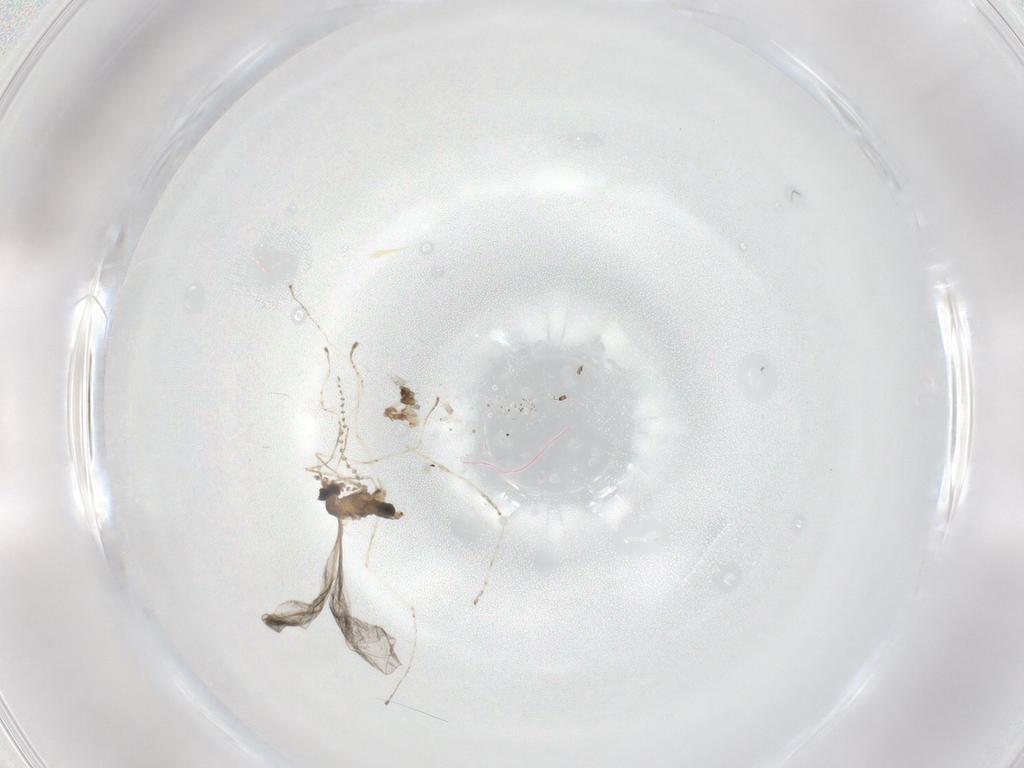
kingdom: Animalia
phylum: Arthropoda
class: Insecta
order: Diptera
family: Cecidomyiidae
